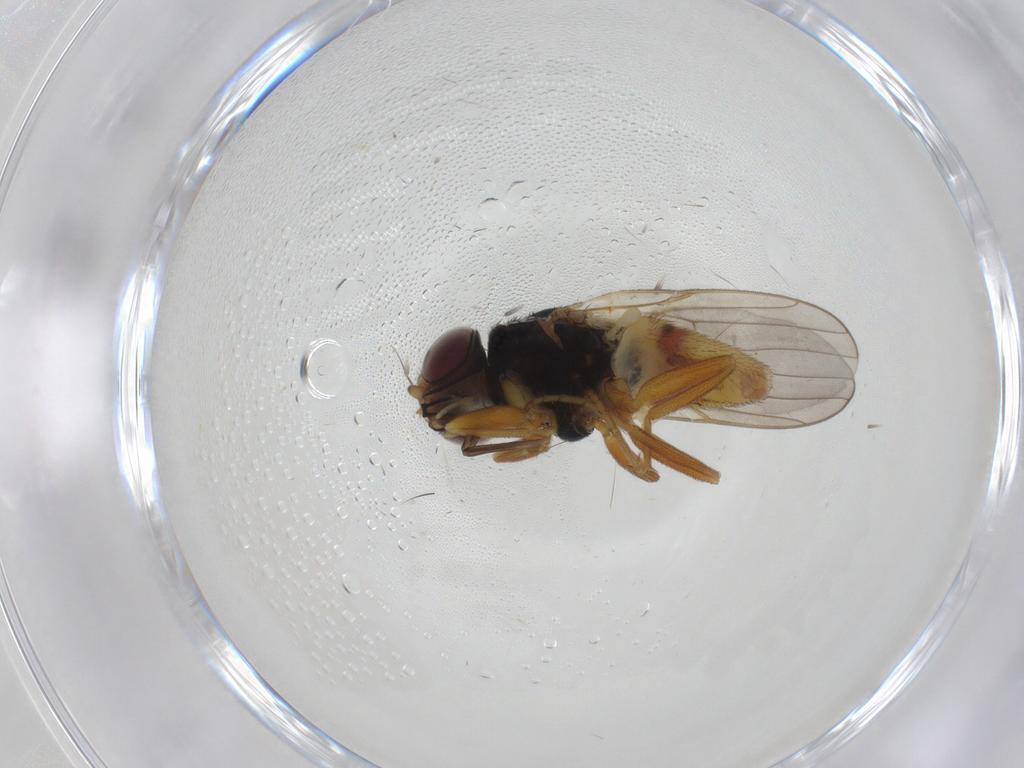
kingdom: Animalia
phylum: Arthropoda
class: Insecta
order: Diptera
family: Chloropidae
